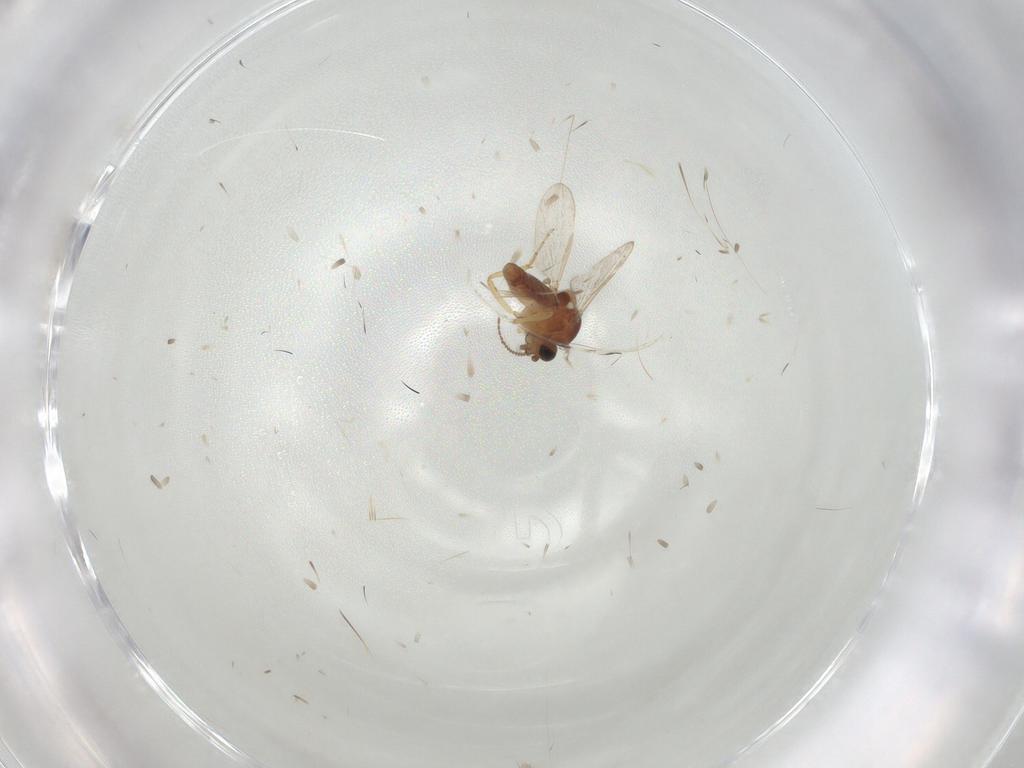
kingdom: Animalia
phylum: Arthropoda
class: Insecta
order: Diptera
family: Ceratopogonidae
